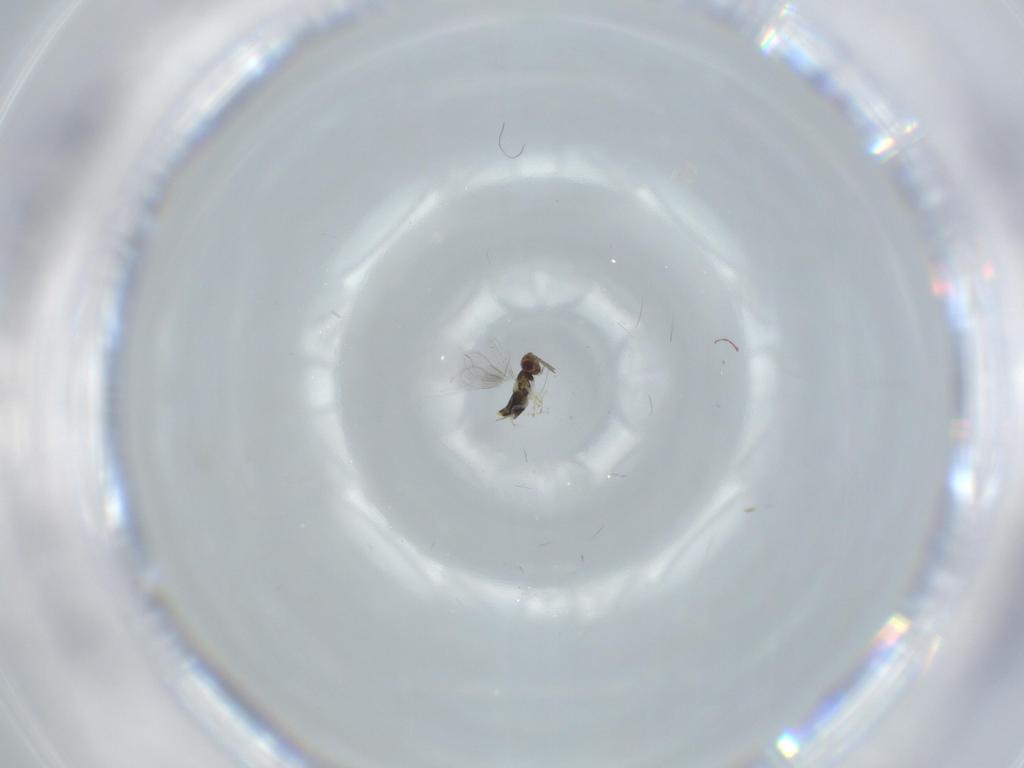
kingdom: Animalia
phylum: Arthropoda
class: Insecta
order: Hymenoptera
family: Aphelinidae
